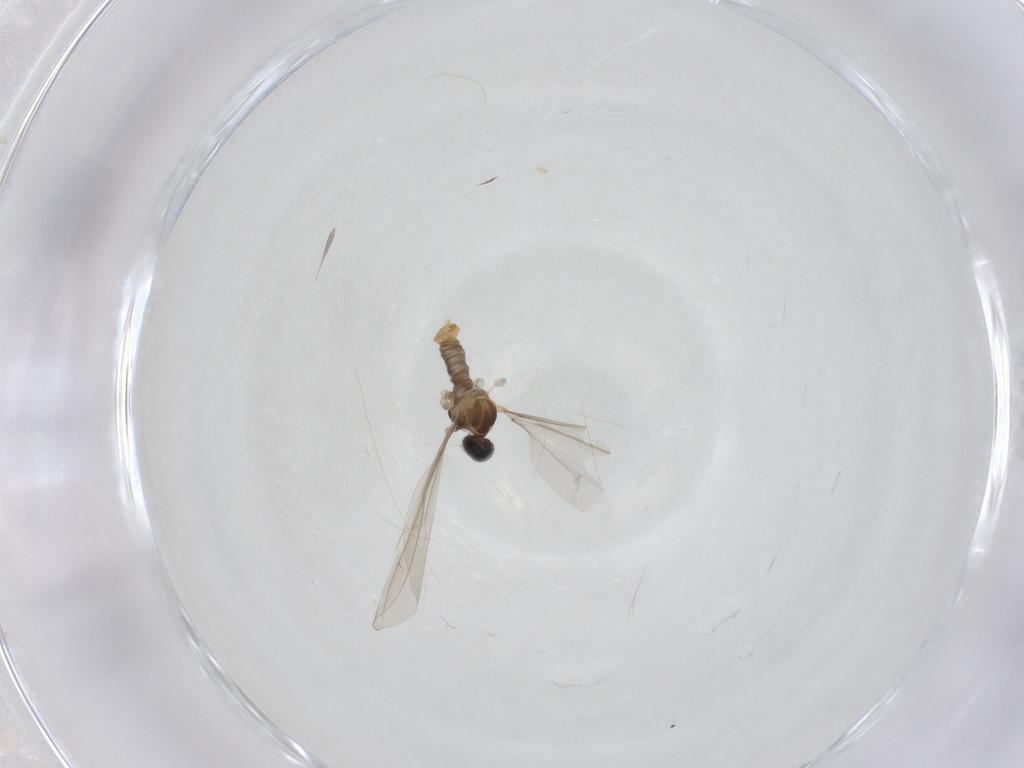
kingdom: Animalia
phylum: Arthropoda
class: Insecta
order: Diptera
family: Cecidomyiidae
